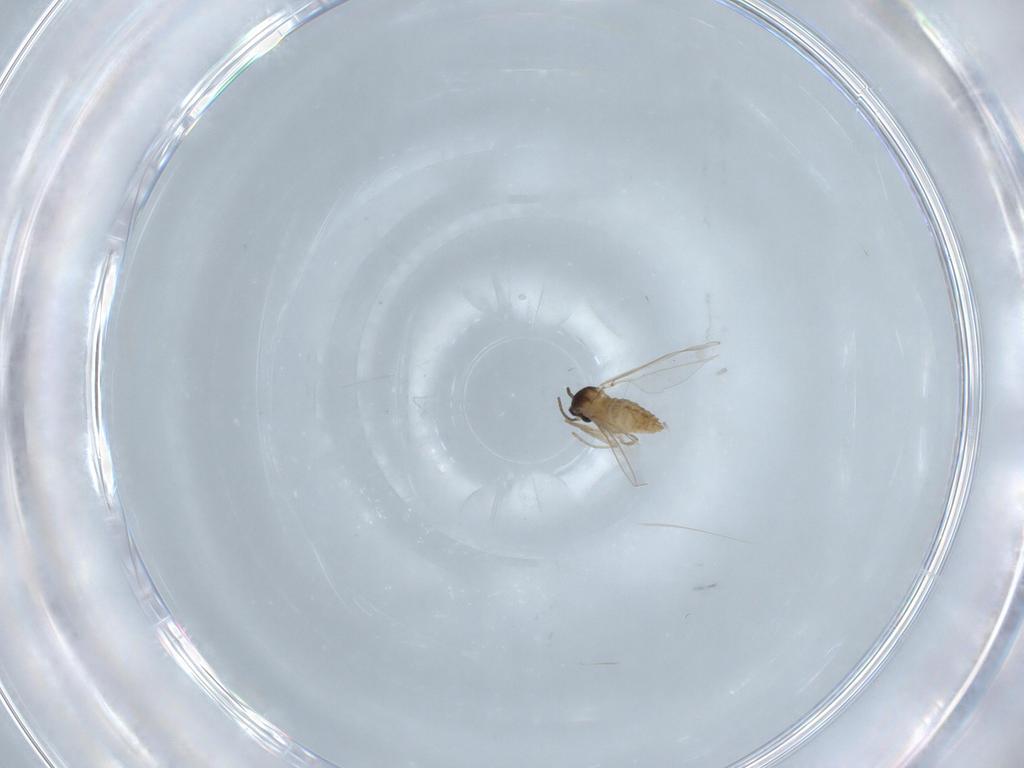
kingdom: Animalia
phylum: Arthropoda
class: Insecta
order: Diptera
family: Cecidomyiidae
